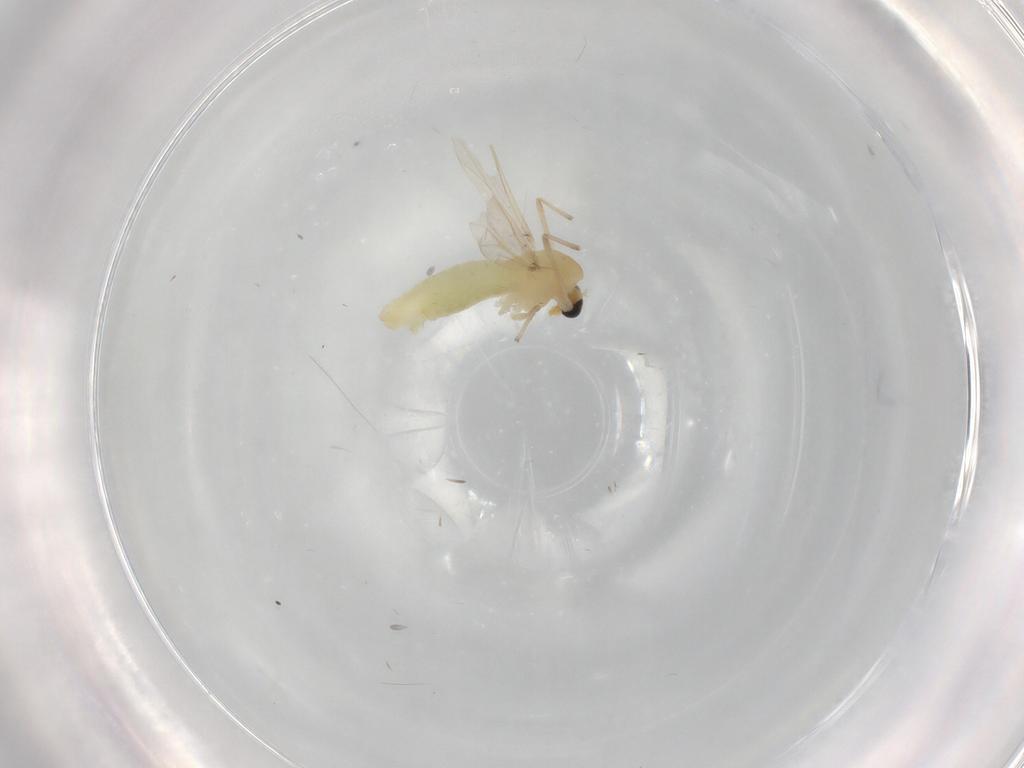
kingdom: Animalia
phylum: Arthropoda
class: Insecta
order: Diptera
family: Chironomidae
